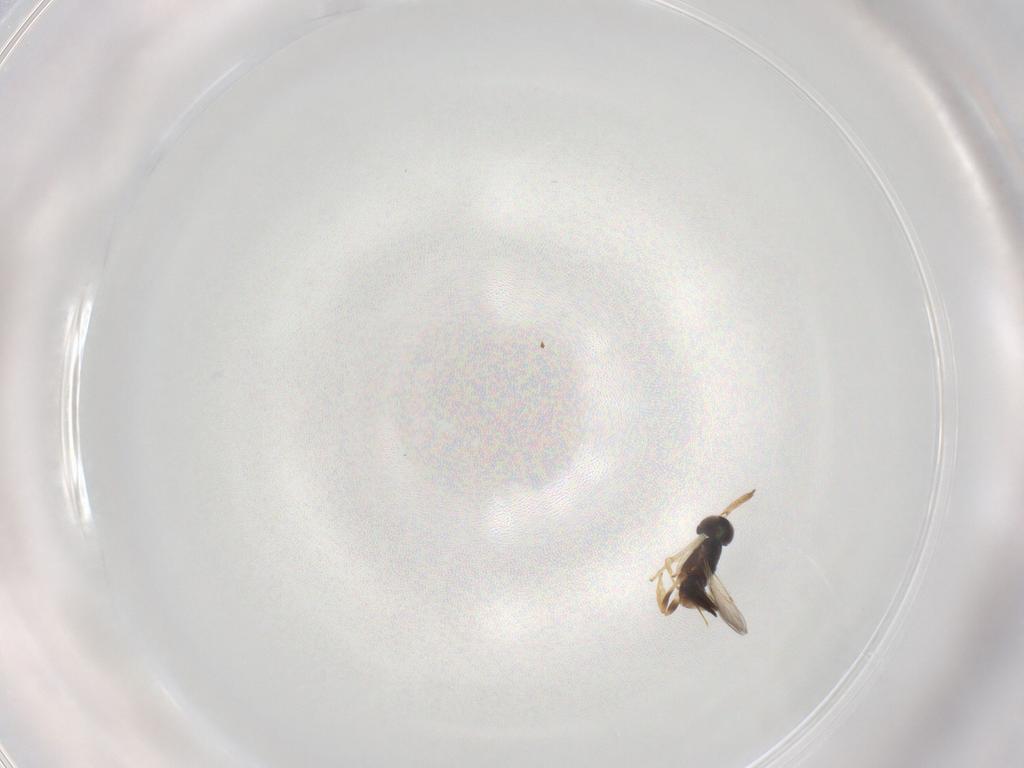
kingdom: Animalia
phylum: Arthropoda
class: Insecta
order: Hymenoptera
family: Mutillidae
